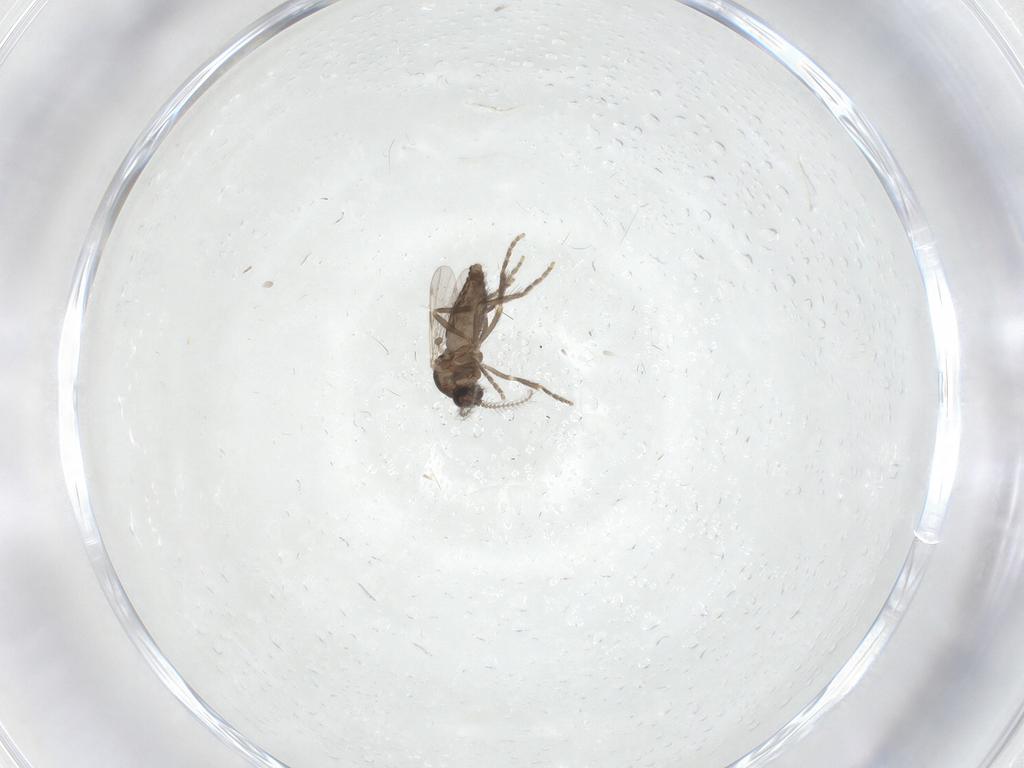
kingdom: Animalia
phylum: Arthropoda
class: Insecta
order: Diptera
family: Ceratopogonidae
